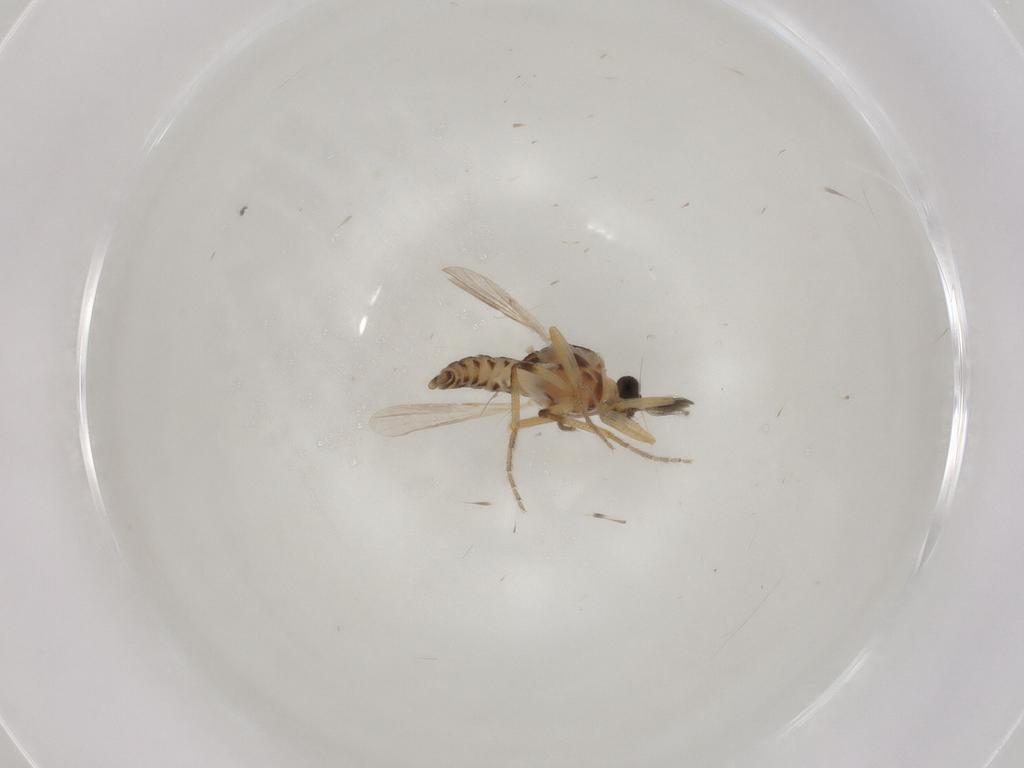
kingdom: Animalia
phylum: Arthropoda
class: Insecta
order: Diptera
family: Ceratopogonidae
